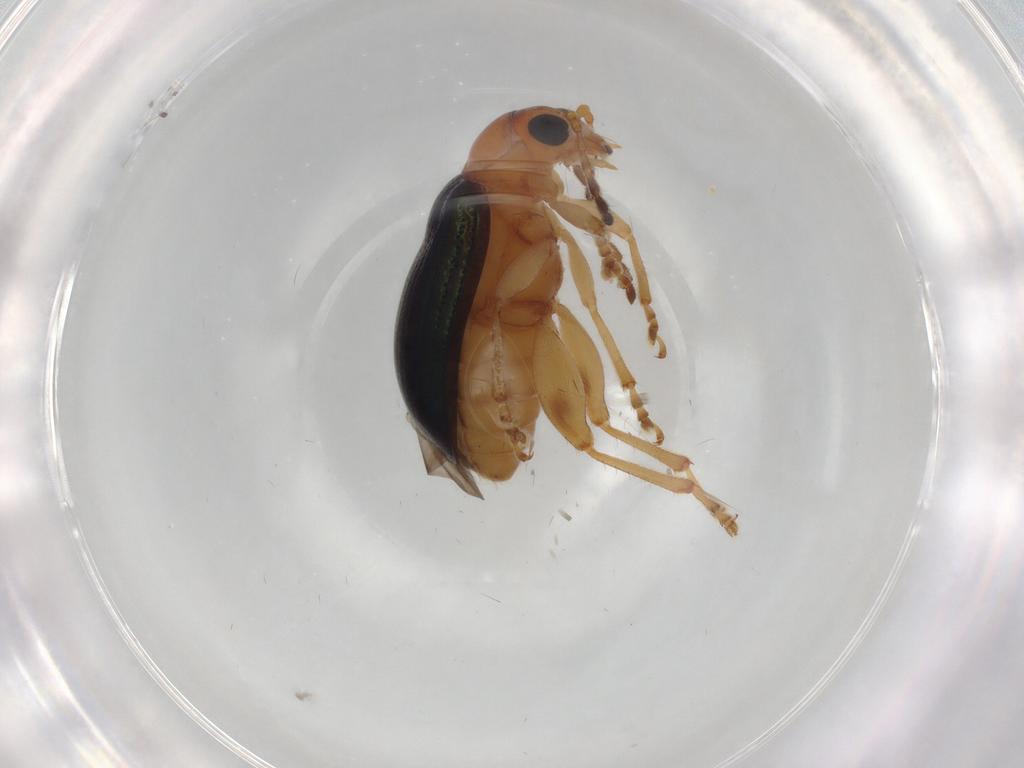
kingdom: Animalia
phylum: Arthropoda
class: Insecta
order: Coleoptera
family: Chrysomelidae
